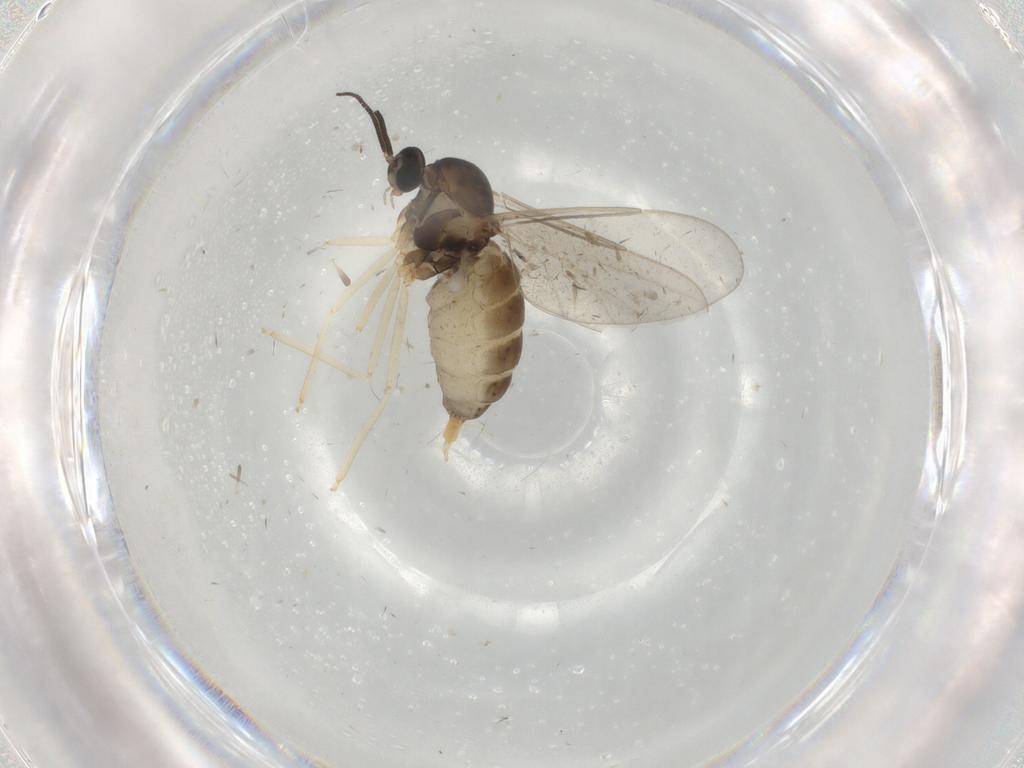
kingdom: Animalia
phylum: Arthropoda
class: Insecta
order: Diptera
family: Cecidomyiidae
